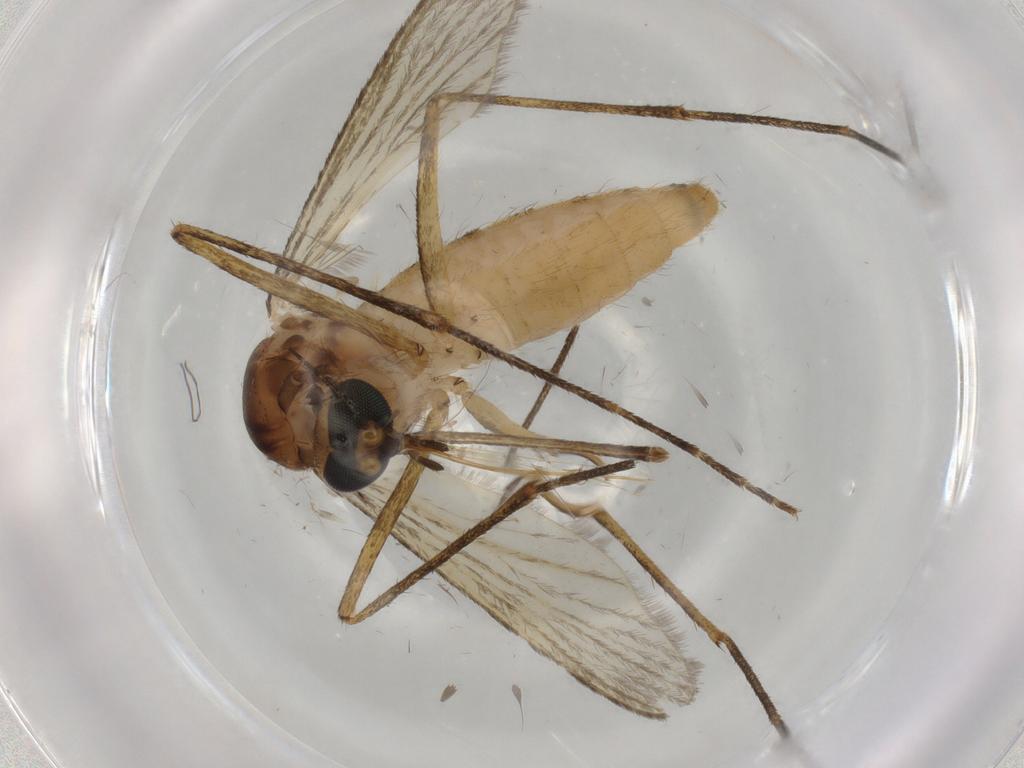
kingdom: Animalia
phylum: Arthropoda
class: Insecta
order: Diptera
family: Culicidae
